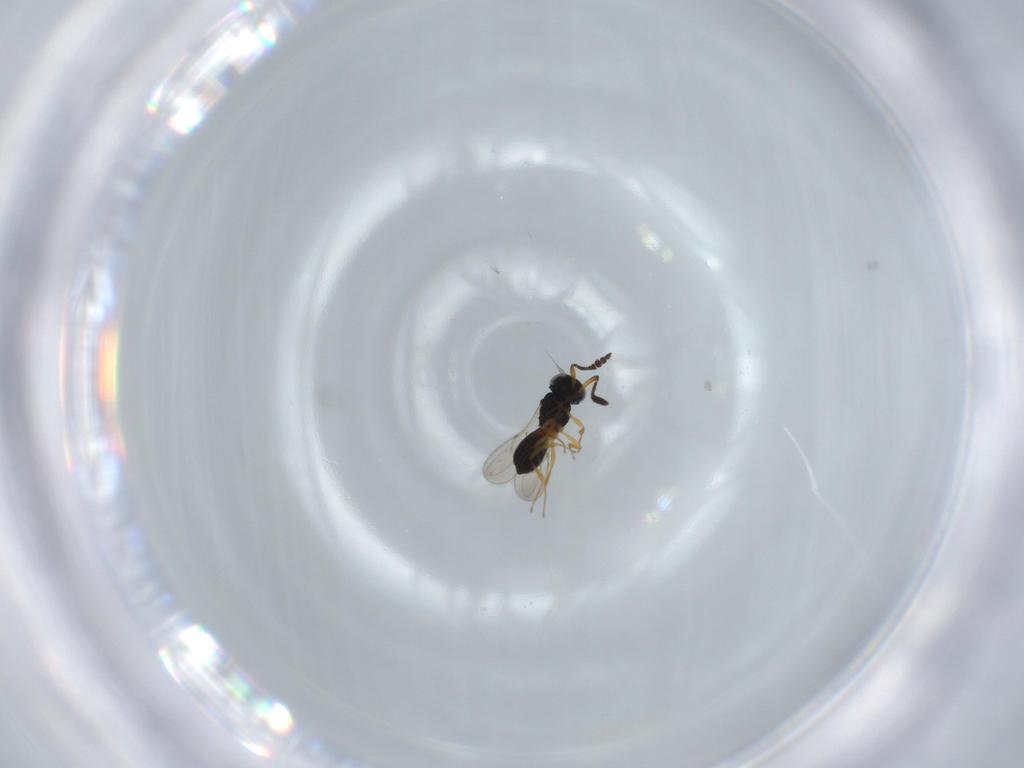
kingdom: Animalia
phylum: Arthropoda
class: Insecta
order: Hymenoptera
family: Scelionidae
